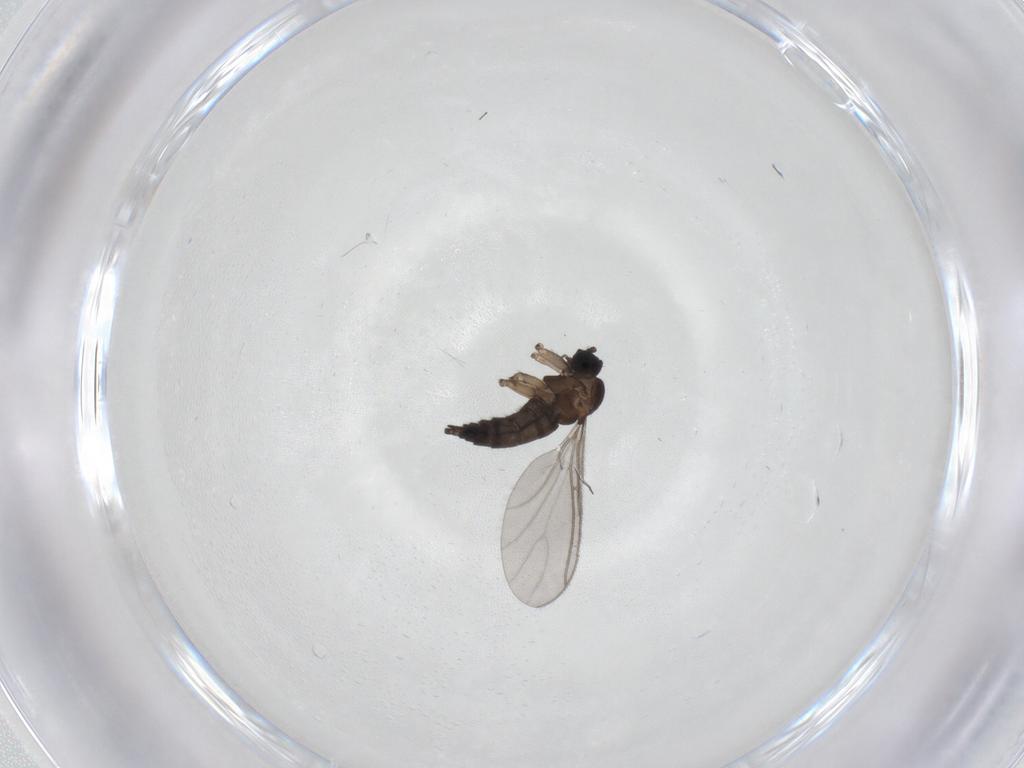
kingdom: Animalia
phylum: Arthropoda
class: Insecta
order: Diptera
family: Sciaridae
